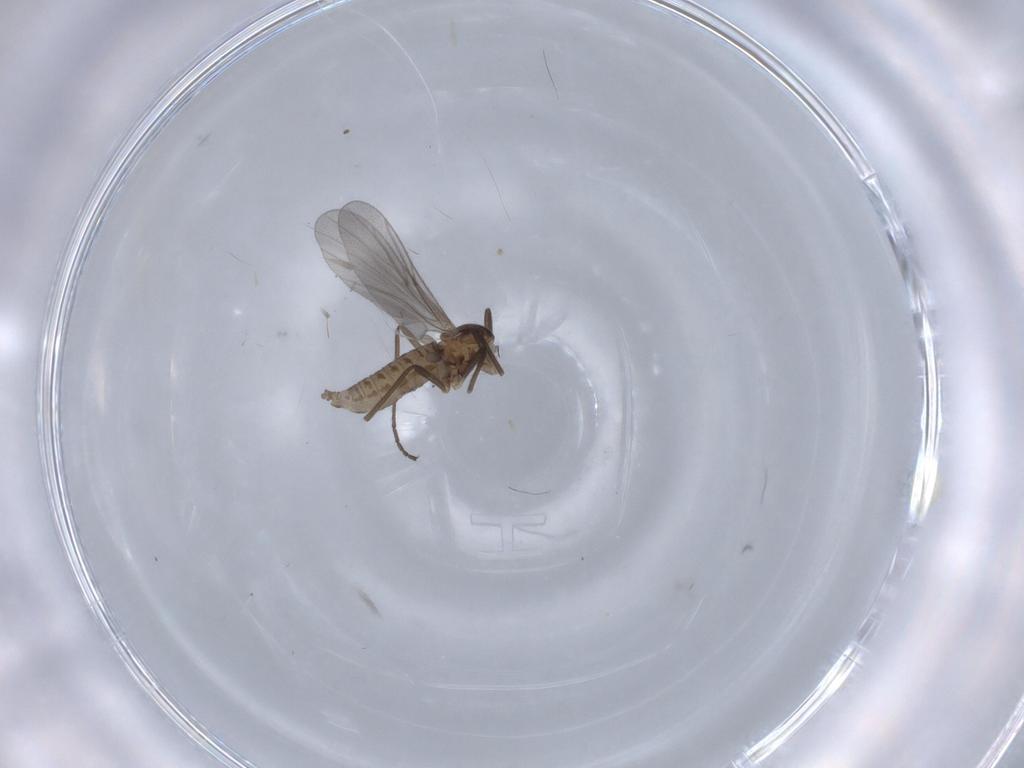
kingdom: Animalia
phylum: Arthropoda
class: Insecta
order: Diptera
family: Cecidomyiidae
